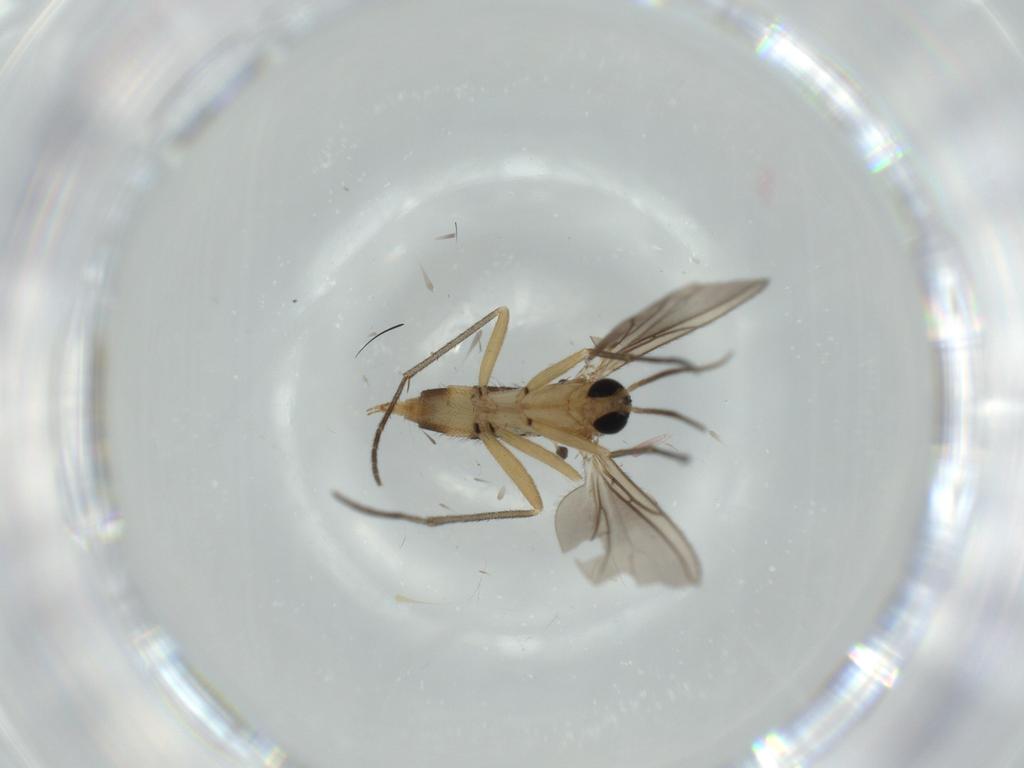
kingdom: Animalia
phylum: Arthropoda
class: Insecta
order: Diptera
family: Sciaridae
